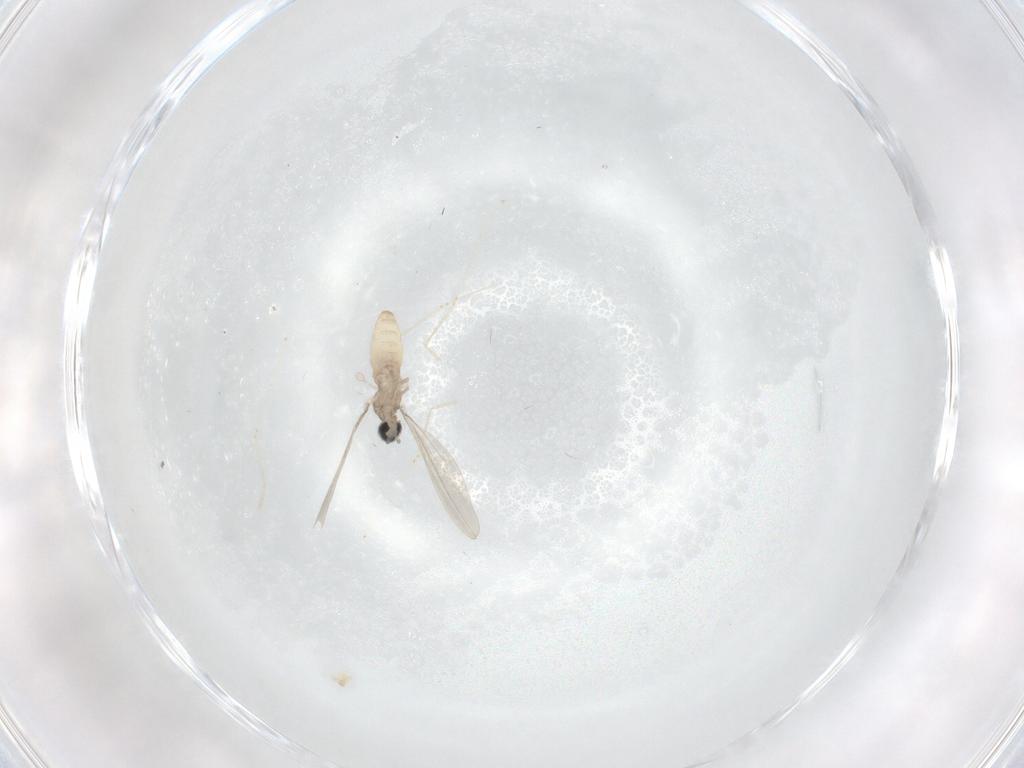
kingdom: Animalia
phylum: Arthropoda
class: Insecta
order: Diptera
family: Cecidomyiidae
